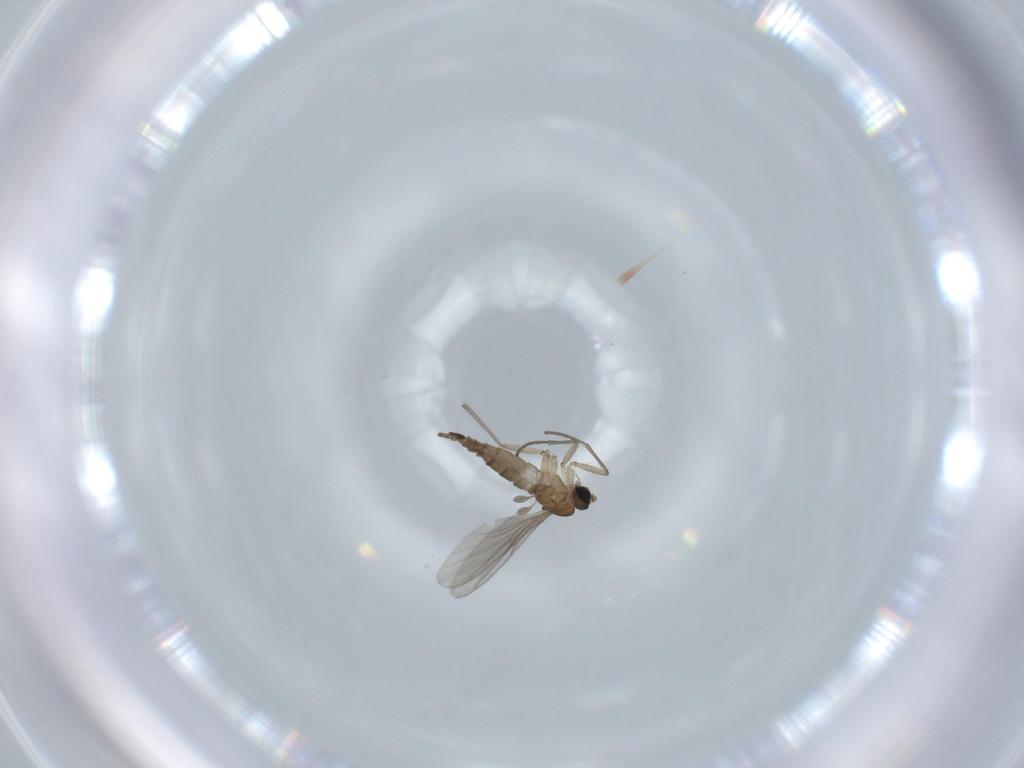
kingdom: Animalia
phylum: Arthropoda
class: Insecta
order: Diptera
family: Sciaridae
